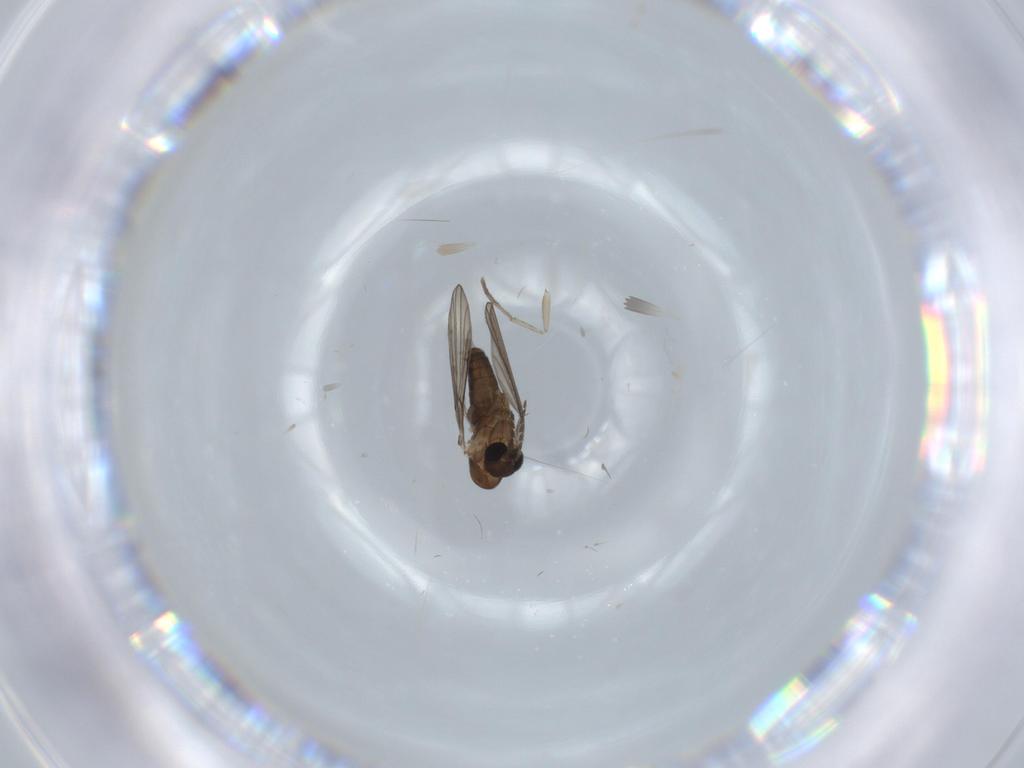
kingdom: Animalia
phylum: Arthropoda
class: Insecta
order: Diptera
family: Psychodidae
